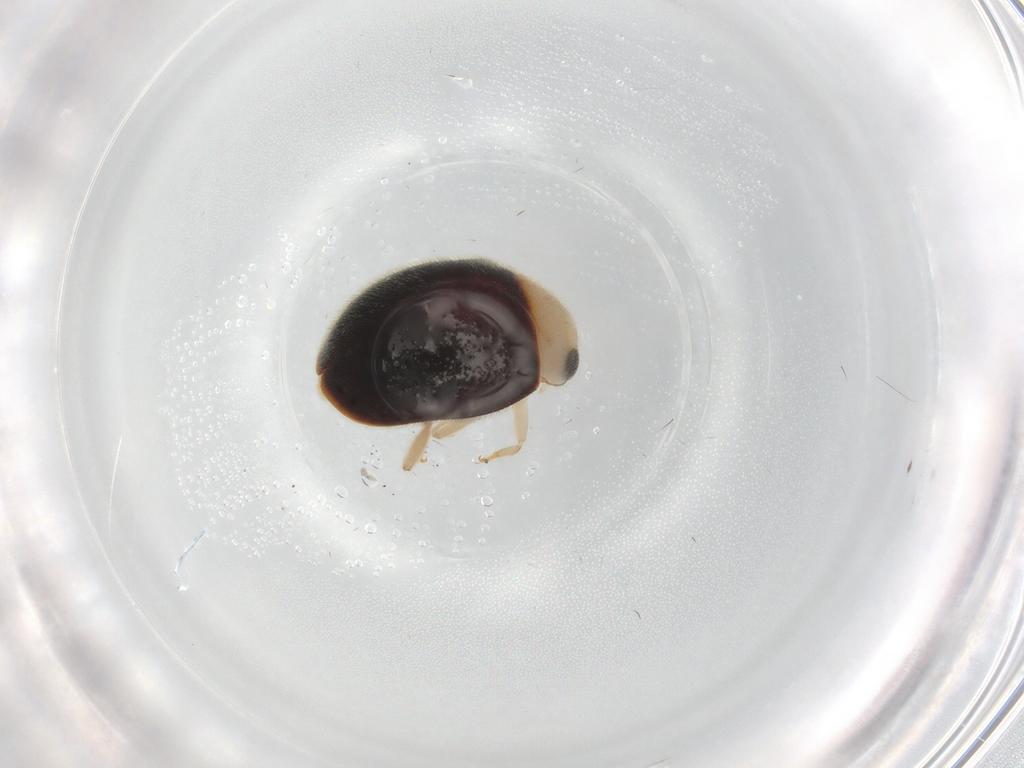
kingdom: Animalia
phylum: Arthropoda
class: Insecta
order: Coleoptera
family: Coccinellidae
